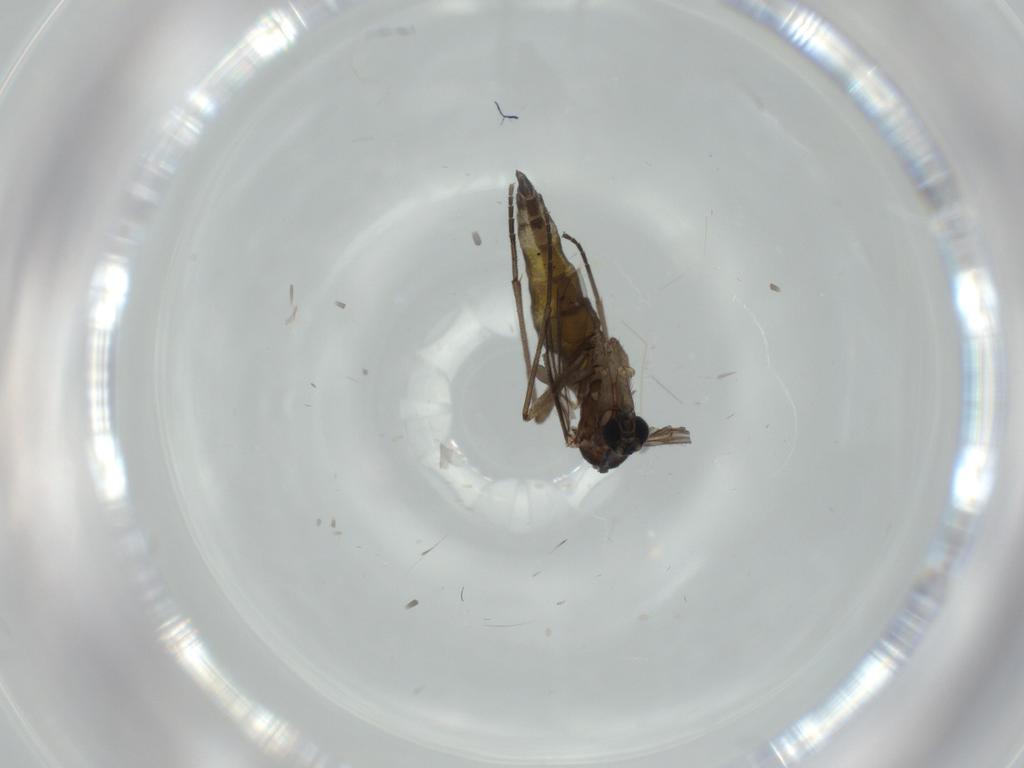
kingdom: Animalia
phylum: Arthropoda
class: Insecta
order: Diptera
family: Sciaridae
